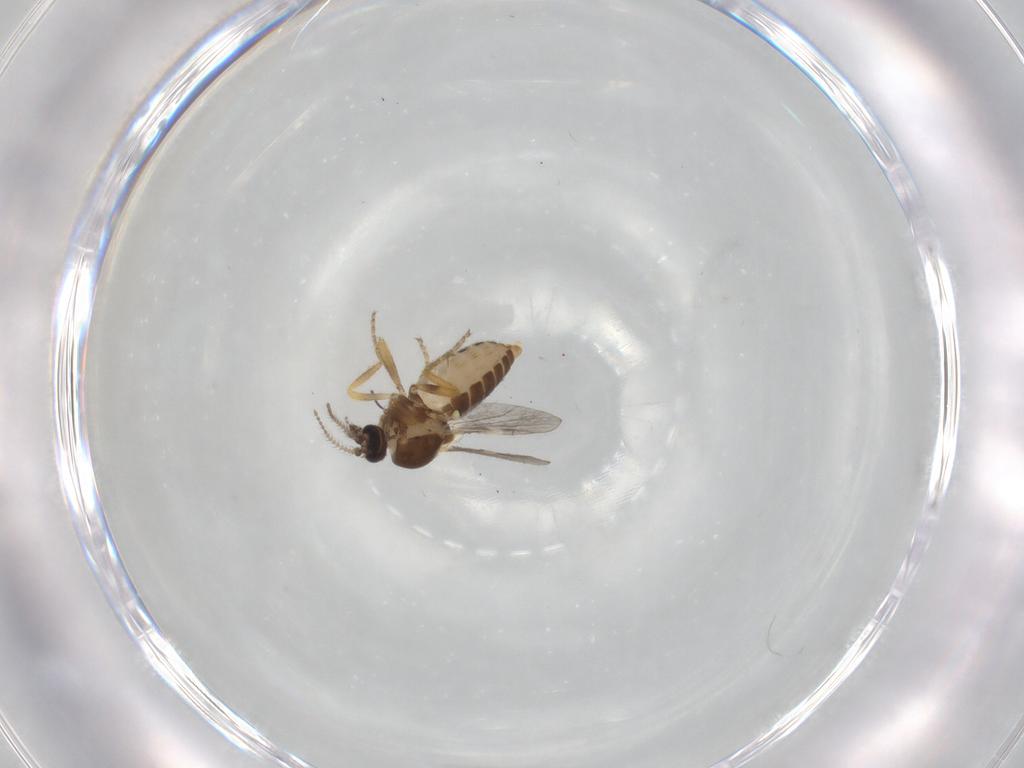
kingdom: Animalia
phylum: Arthropoda
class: Insecta
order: Diptera
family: Ceratopogonidae
